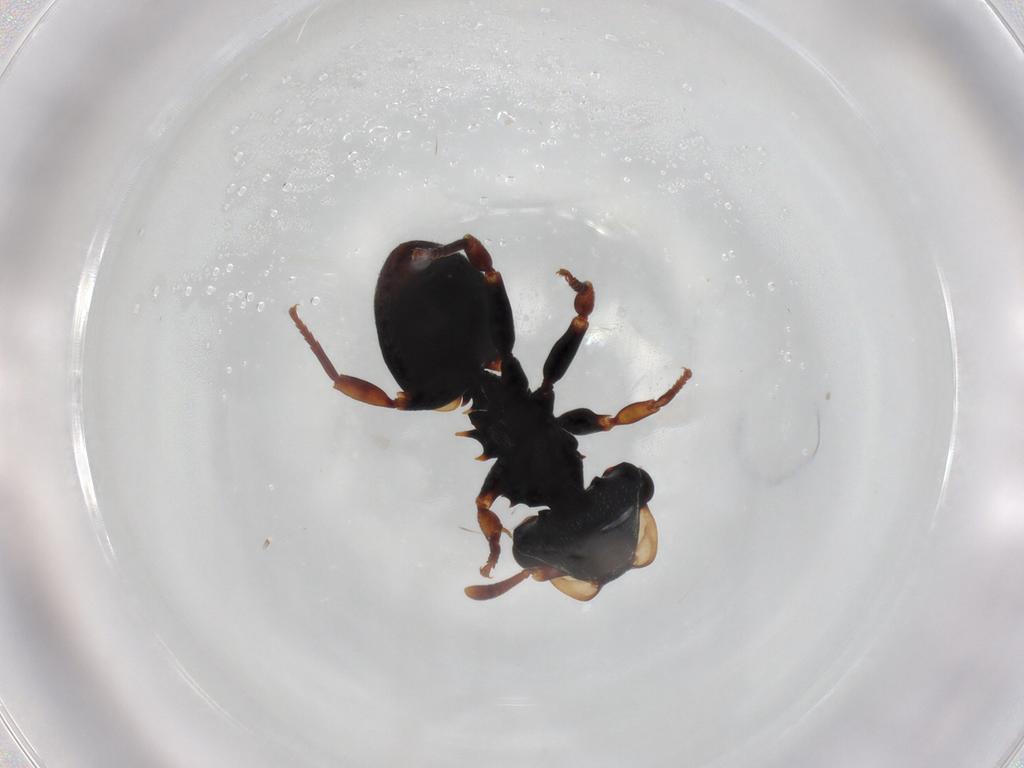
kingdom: Animalia
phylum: Arthropoda
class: Insecta
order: Hymenoptera
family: Formicidae
